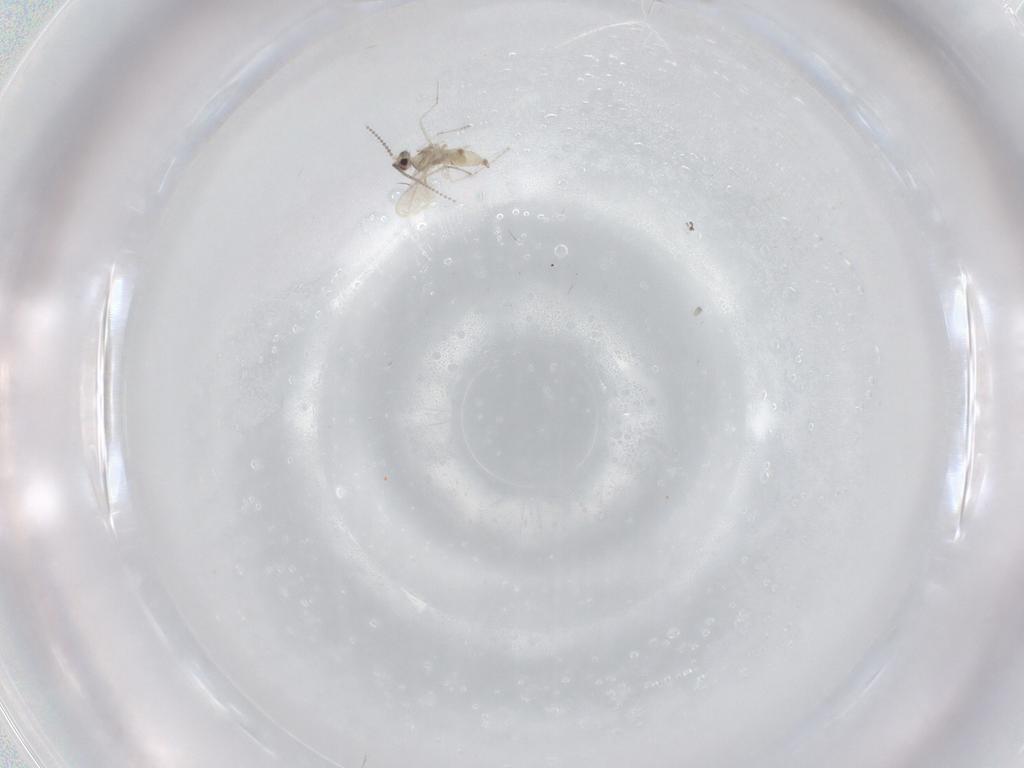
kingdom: Animalia
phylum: Arthropoda
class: Insecta
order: Diptera
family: Cecidomyiidae
